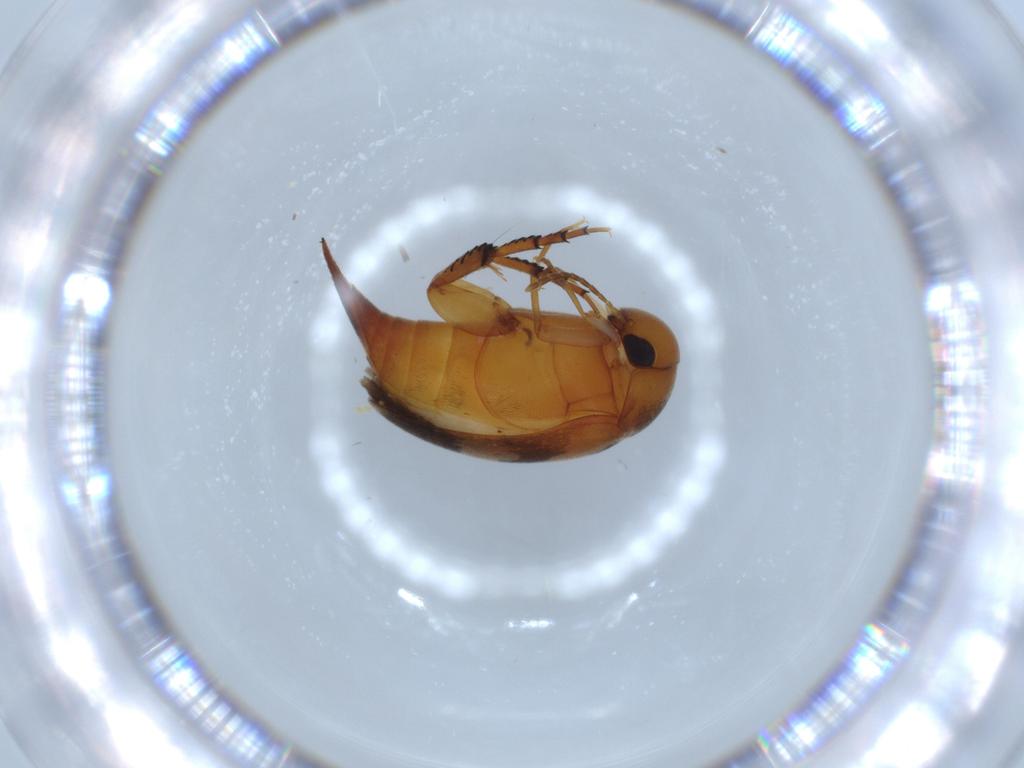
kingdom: Animalia
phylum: Arthropoda
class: Insecta
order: Coleoptera
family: Mordellidae
